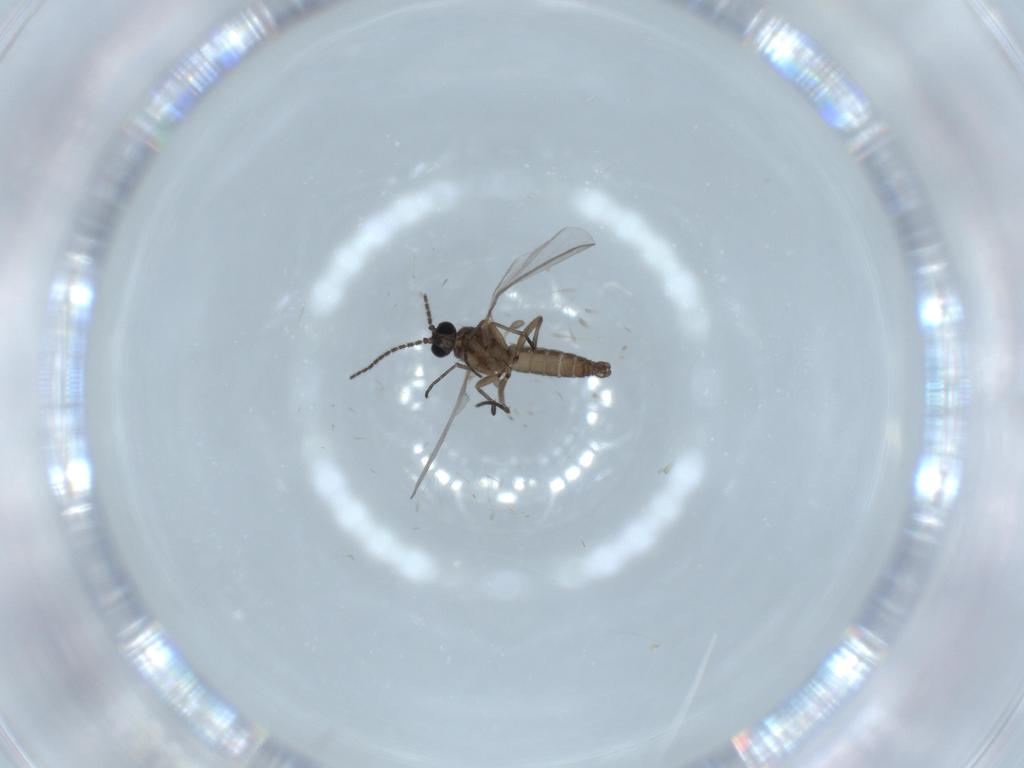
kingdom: Animalia
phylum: Arthropoda
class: Insecta
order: Diptera
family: Sciaridae
